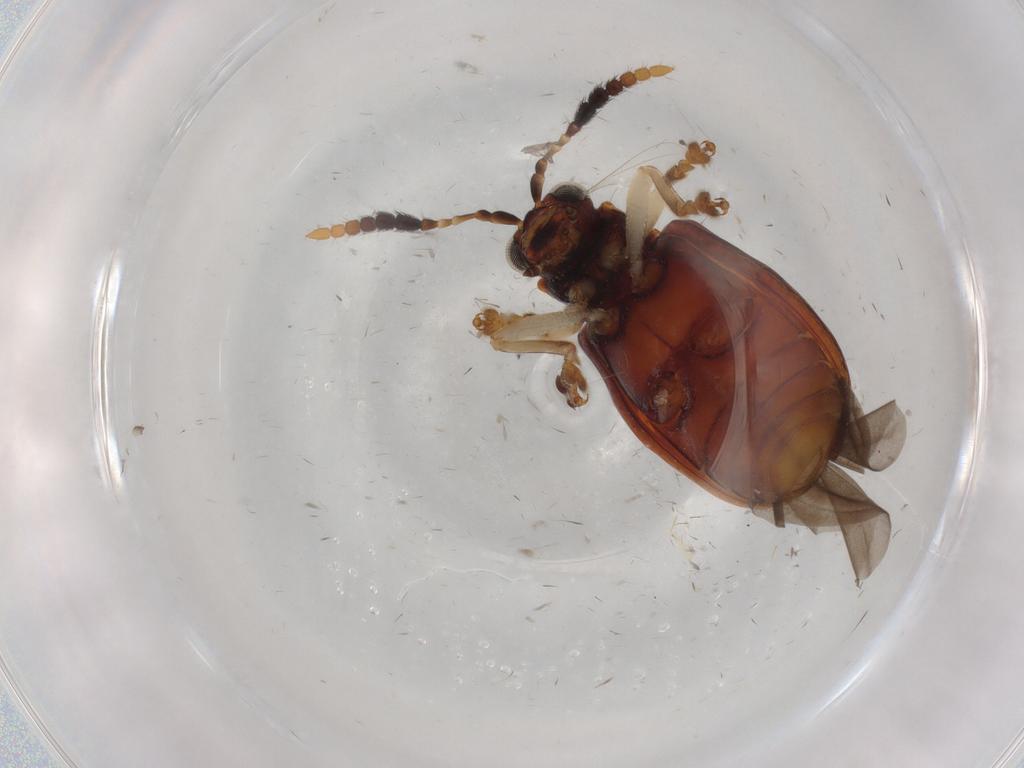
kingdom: Animalia
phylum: Arthropoda
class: Insecta
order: Coleoptera
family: Chrysomelidae
